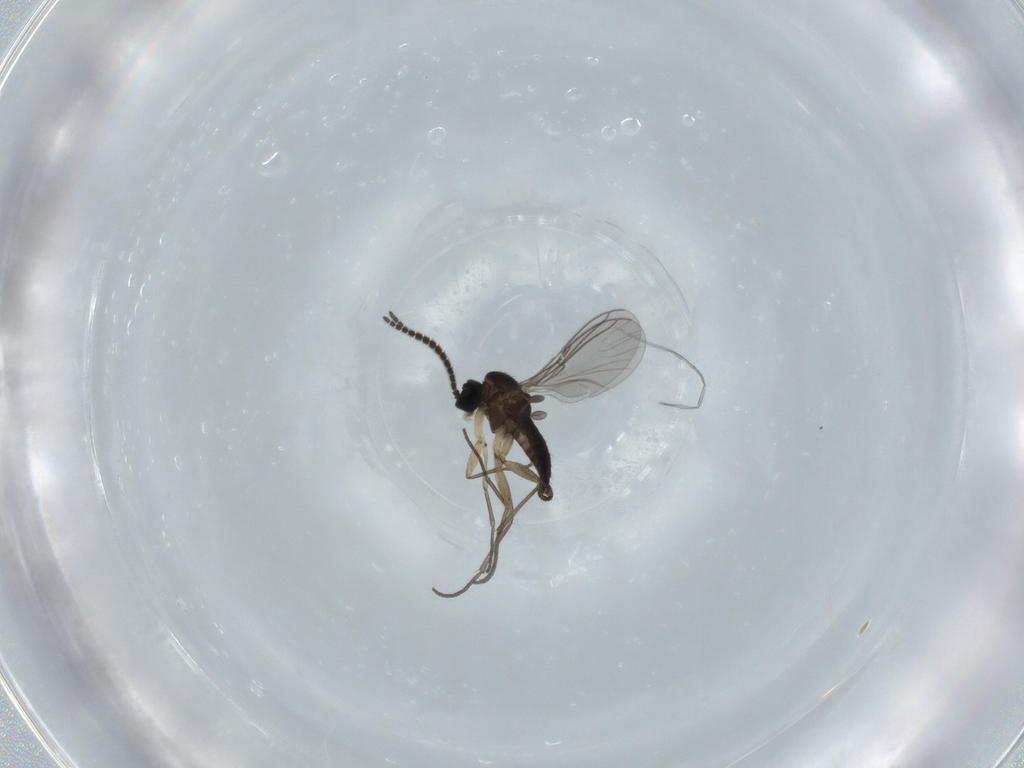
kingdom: Animalia
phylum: Arthropoda
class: Insecta
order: Diptera
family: Sciaridae
